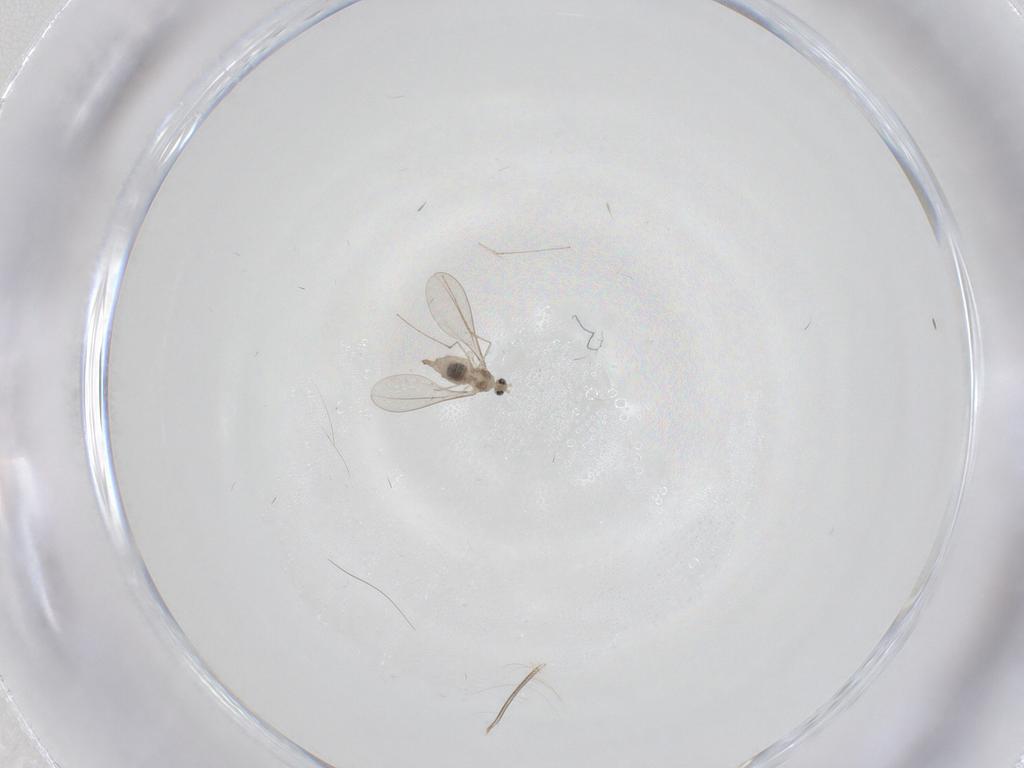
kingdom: Animalia
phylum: Arthropoda
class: Insecta
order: Diptera
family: Cecidomyiidae
